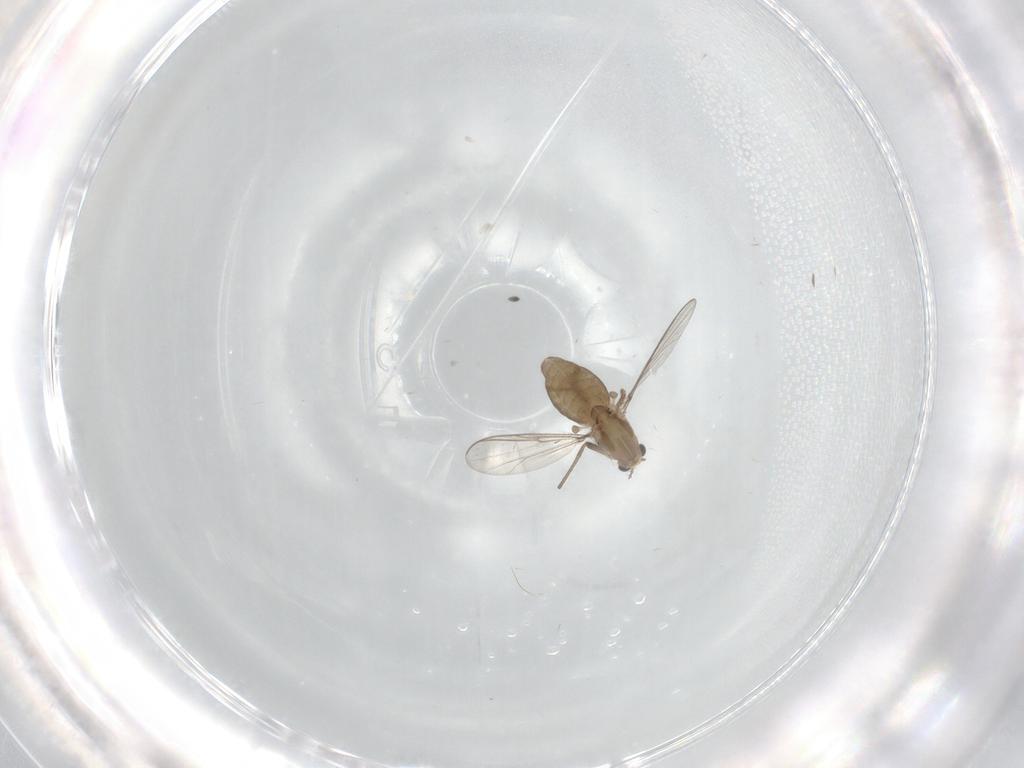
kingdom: Animalia
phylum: Arthropoda
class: Insecta
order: Diptera
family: Chironomidae
